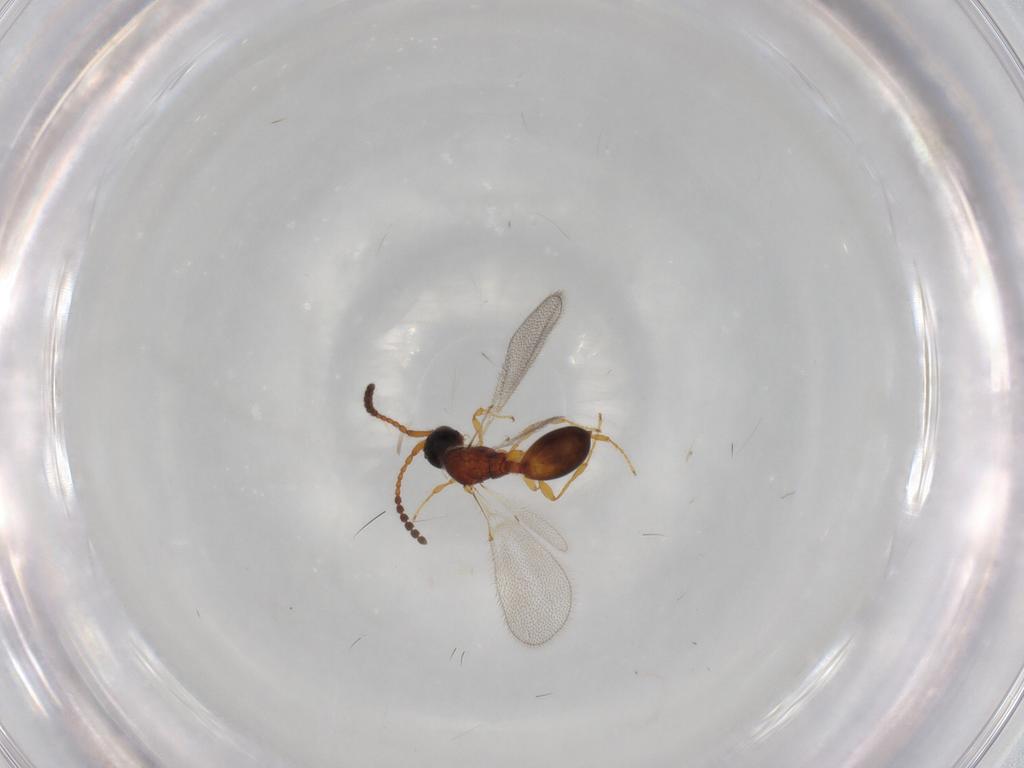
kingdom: Animalia
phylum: Arthropoda
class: Insecta
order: Hymenoptera
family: Diapriidae
